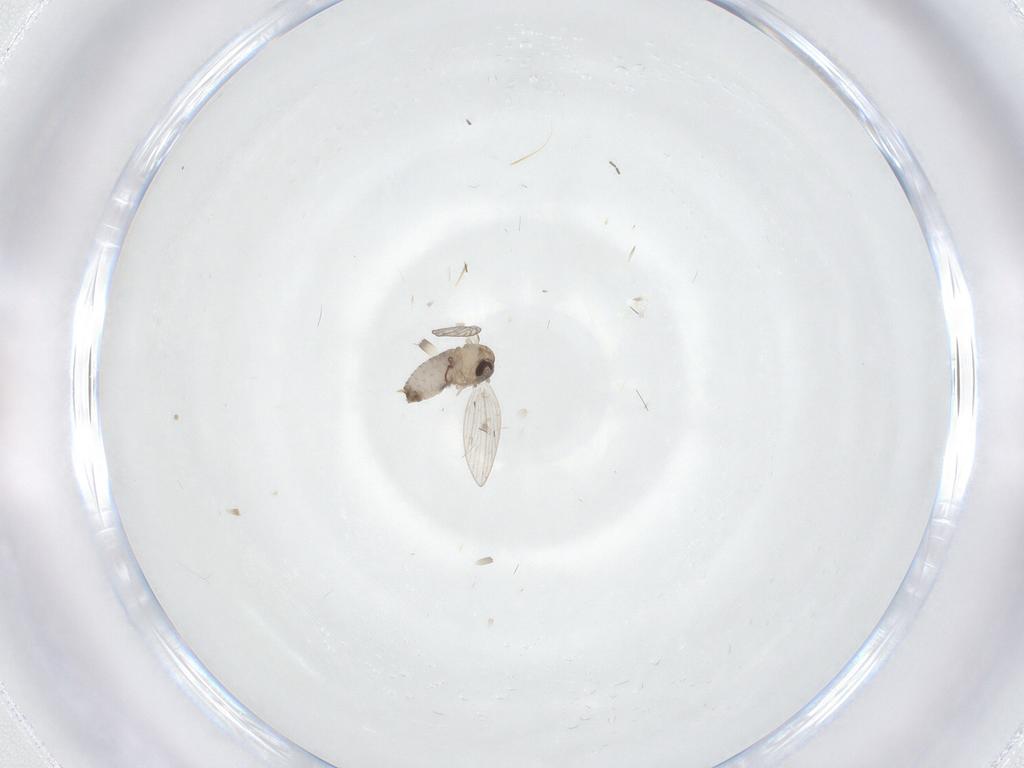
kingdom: Animalia
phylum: Arthropoda
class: Insecta
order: Diptera
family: Psychodidae
